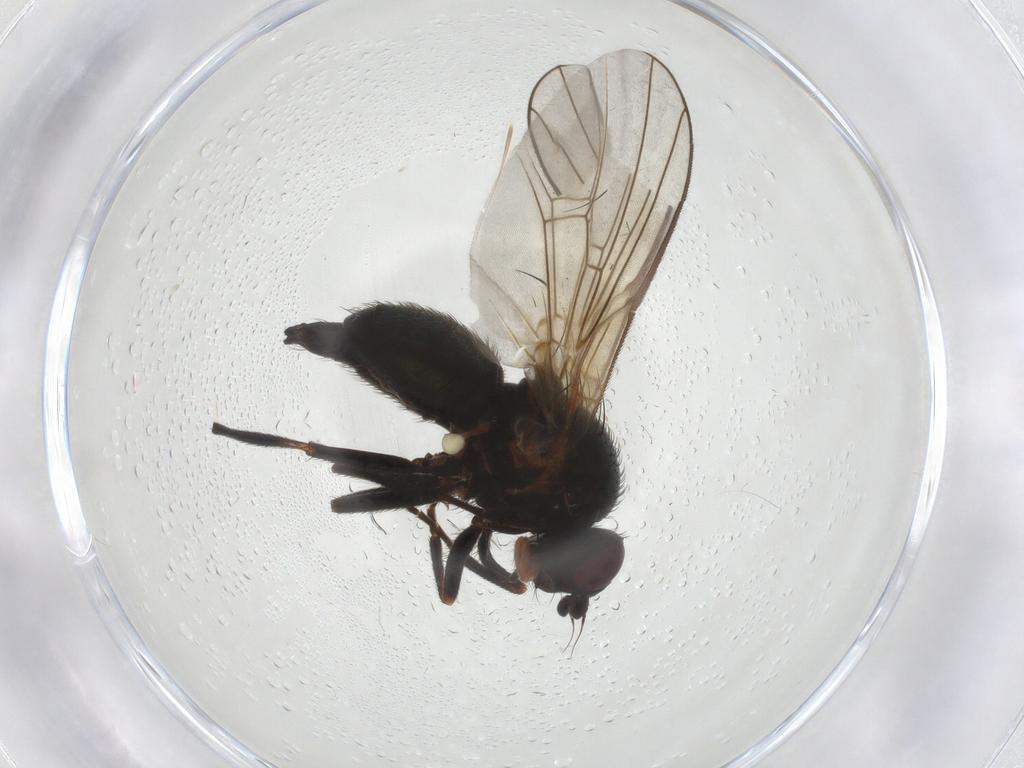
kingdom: Animalia
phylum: Arthropoda
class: Insecta
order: Diptera
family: Agromyzidae
